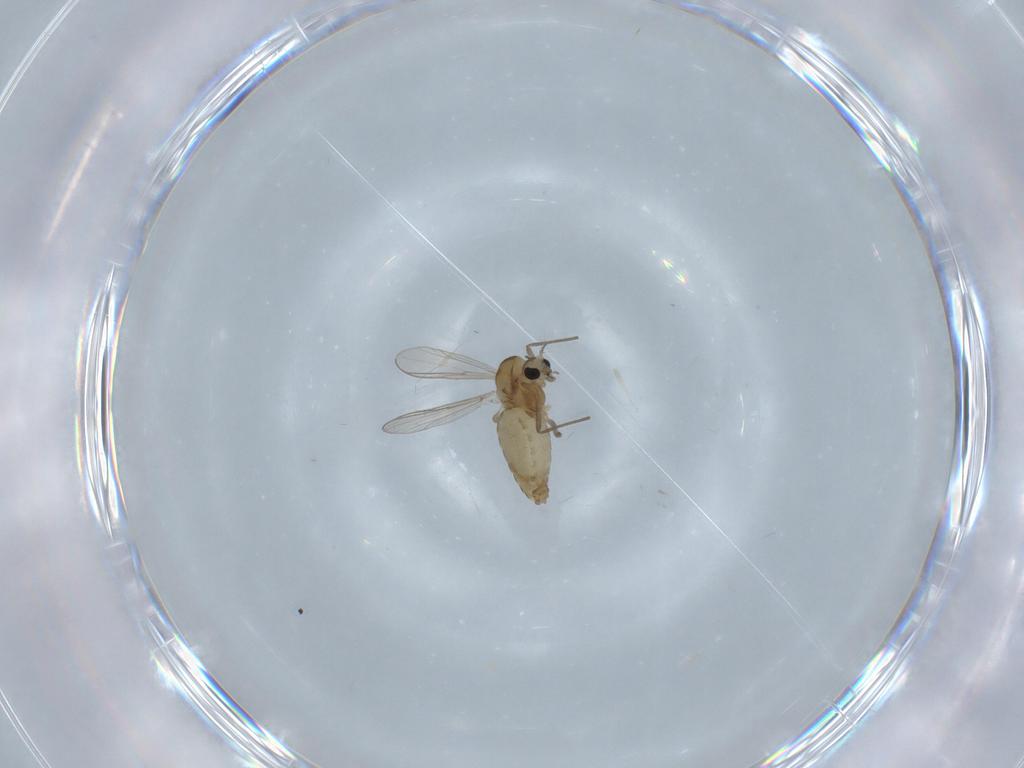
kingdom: Animalia
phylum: Arthropoda
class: Insecta
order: Diptera
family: Chironomidae
